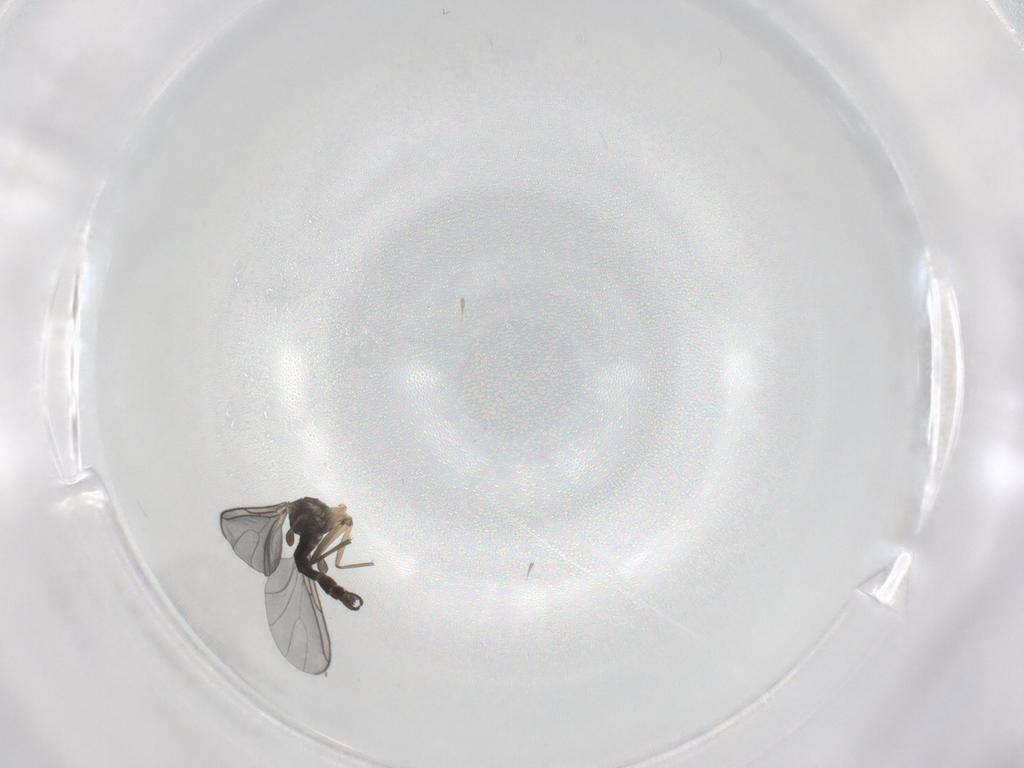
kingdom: Animalia
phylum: Arthropoda
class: Insecta
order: Diptera
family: Sciaridae
